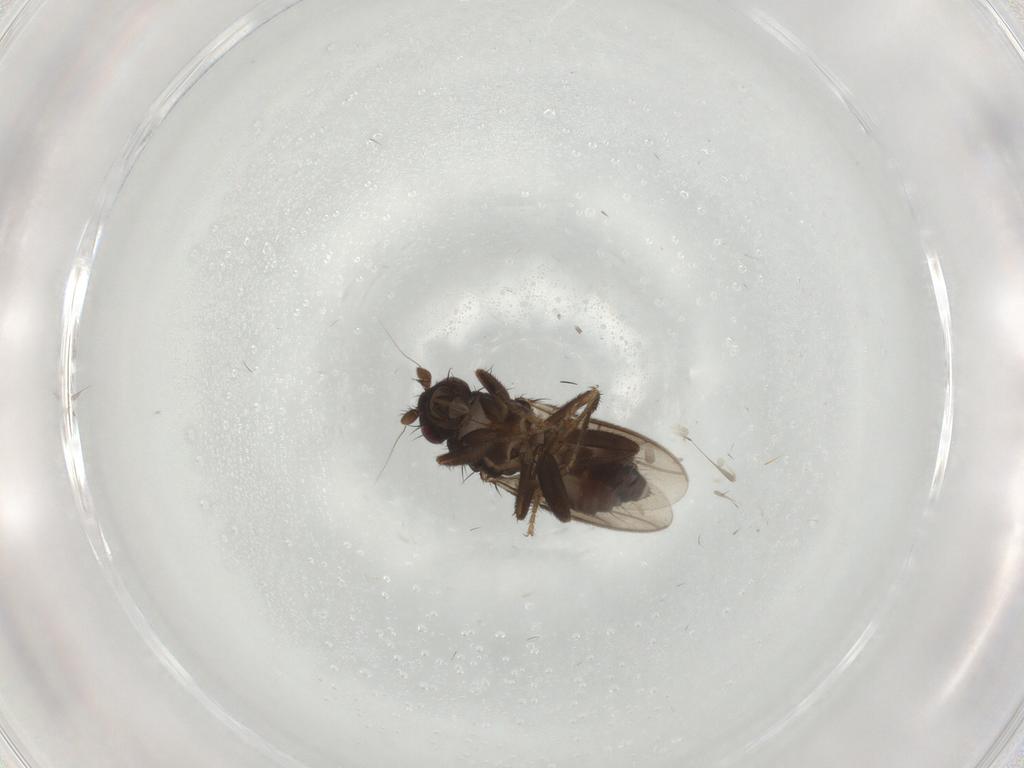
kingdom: Animalia
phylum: Arthropoda
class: Insecta
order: Diptera
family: Sphaeroceridae
